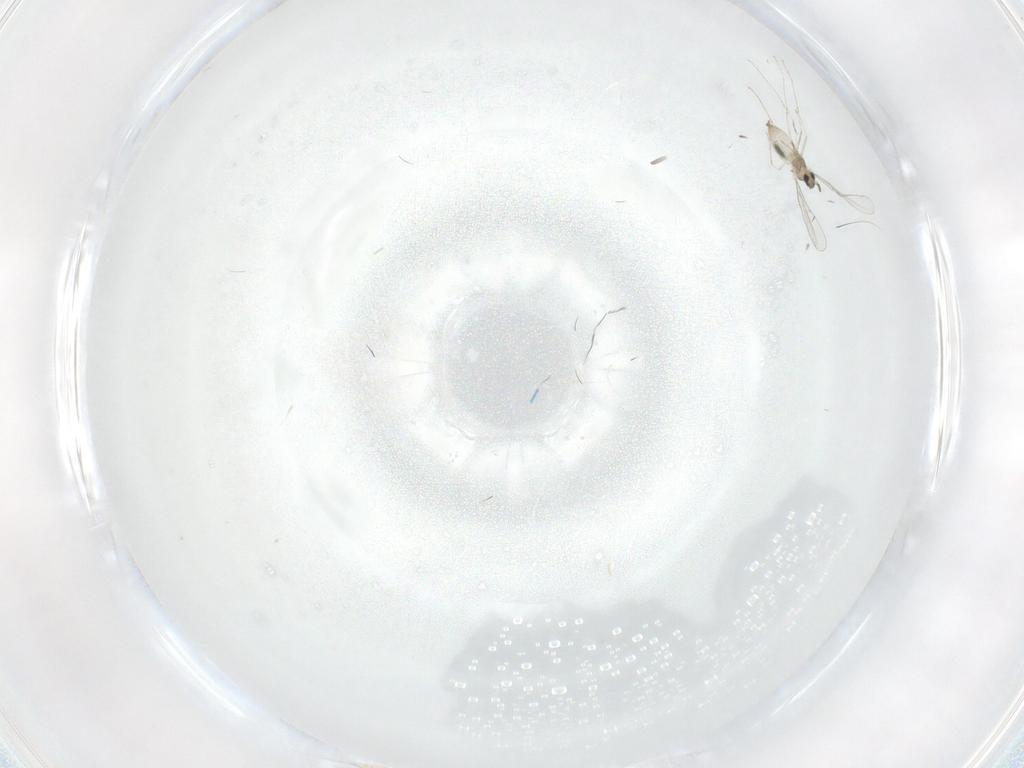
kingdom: Animalia
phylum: Arthropoda
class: Insecta
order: Diptera
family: Cecidomyiidae
